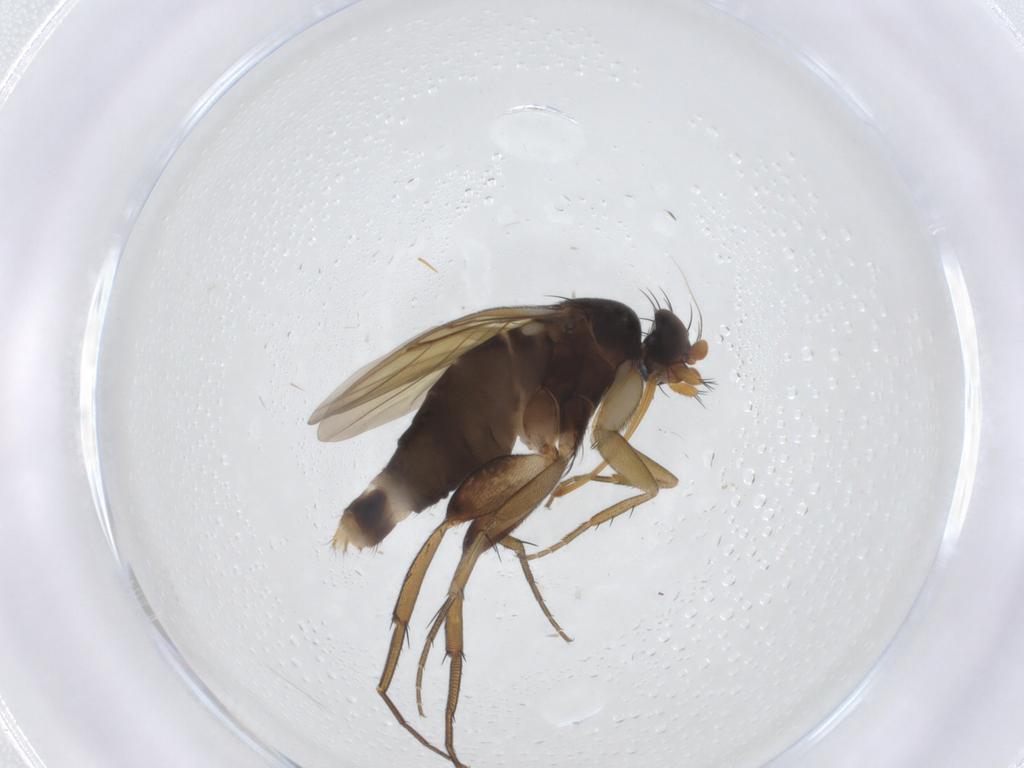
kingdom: Animalia
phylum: Arthropoda
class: Insecta
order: Diptera
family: Phoridae
